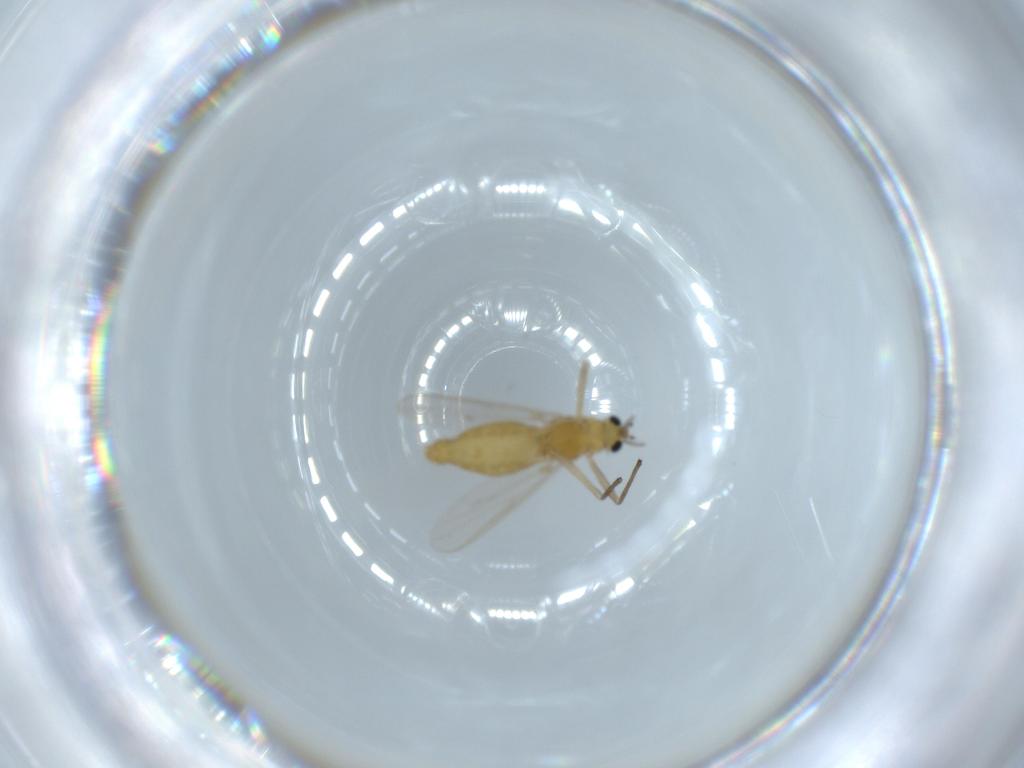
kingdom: Animalia
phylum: Arthropoda
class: Insecta
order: Diptera
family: Chironomidae
